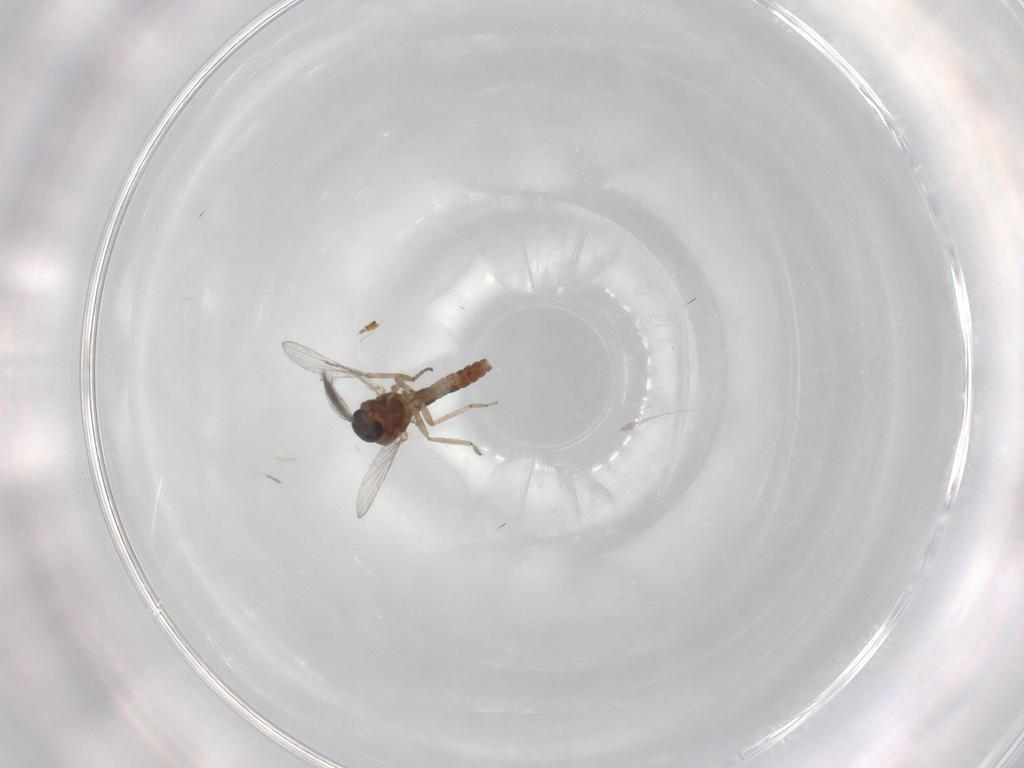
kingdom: Animalia
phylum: Arthropoda
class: Insecta
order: Diptera
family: Ceratopogonidae
